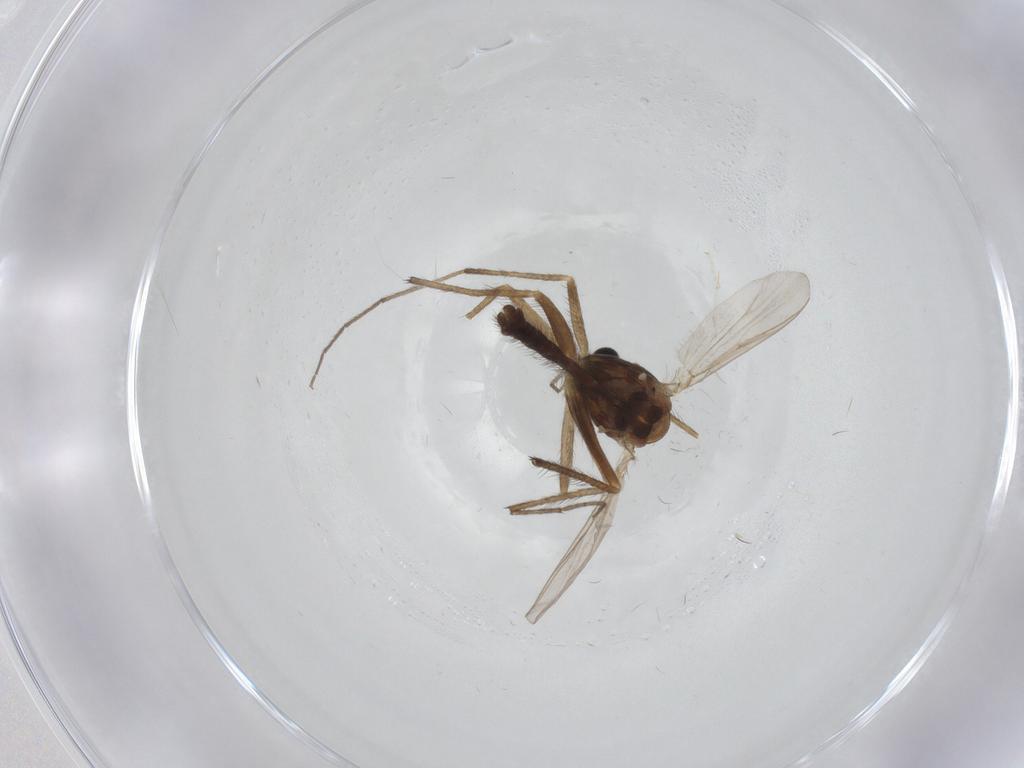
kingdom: Animalia
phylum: Arthropoda
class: Insecta
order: Diptera
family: Chironomidae
